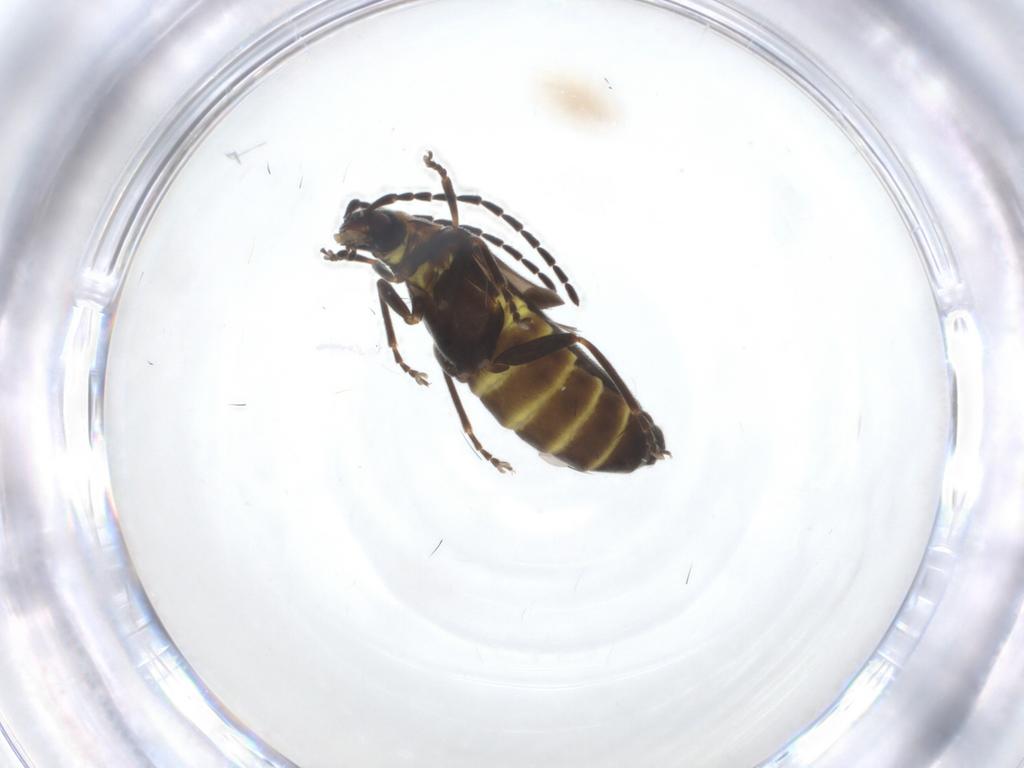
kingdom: Animalia
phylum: Arthropoda
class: Insecta
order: Coleoptera
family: Cantharidae
